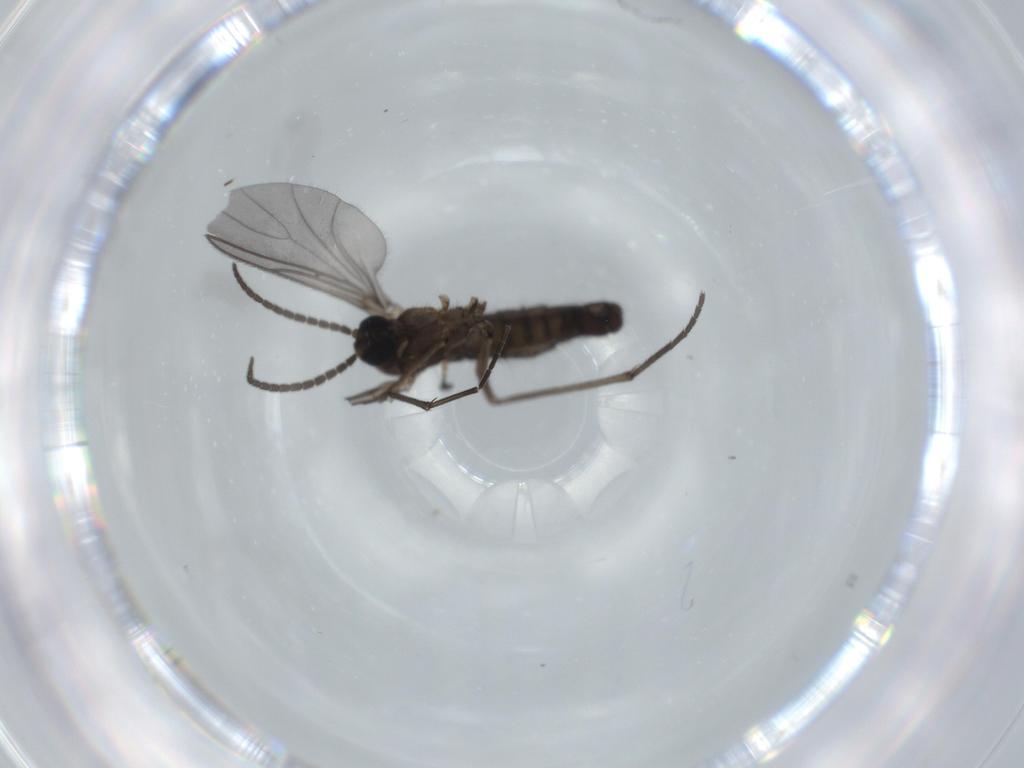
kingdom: Animalia
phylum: Arthropoda
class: Insecta
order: Diptera
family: Sciaridae
